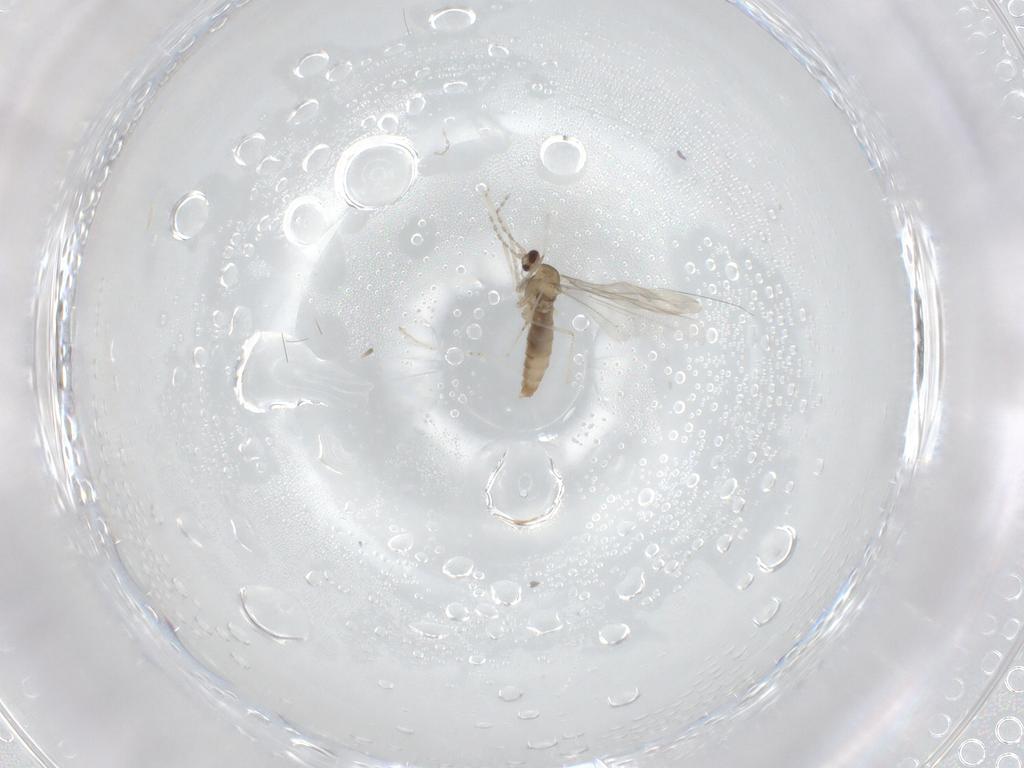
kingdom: Animalia
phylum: Arthropoda
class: Insecta
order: Diptera
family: Cecidomyiidae
